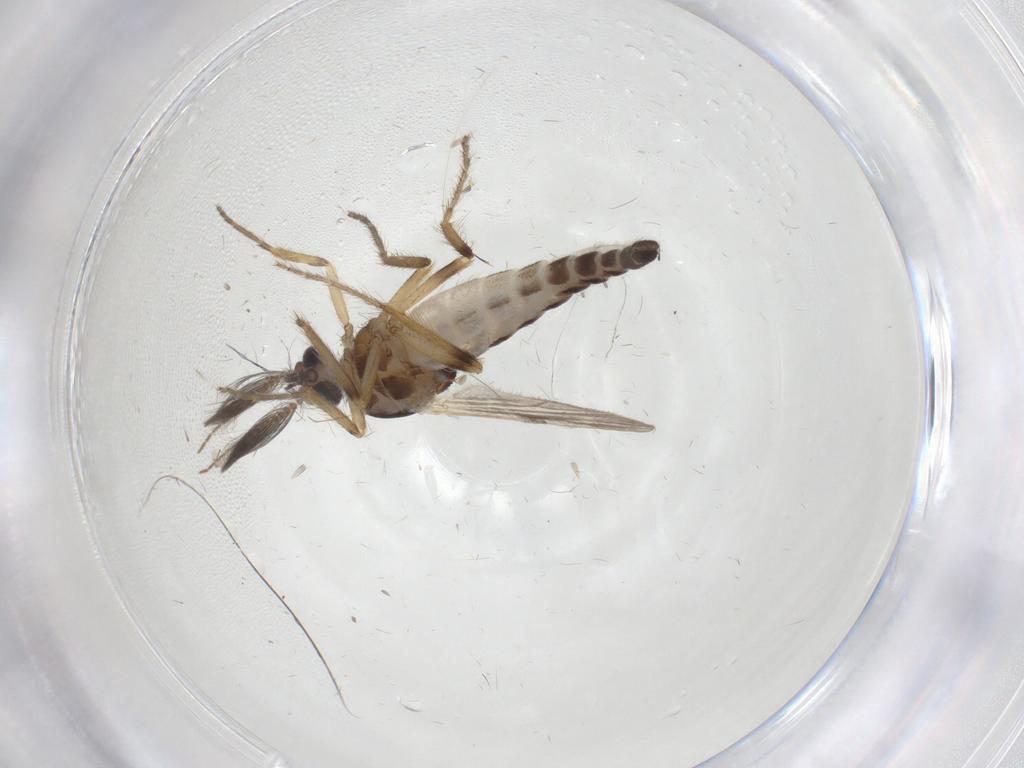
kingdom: Animalia
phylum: Arthropoda
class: Insecta
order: Diptera
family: Ceratopogonidae
